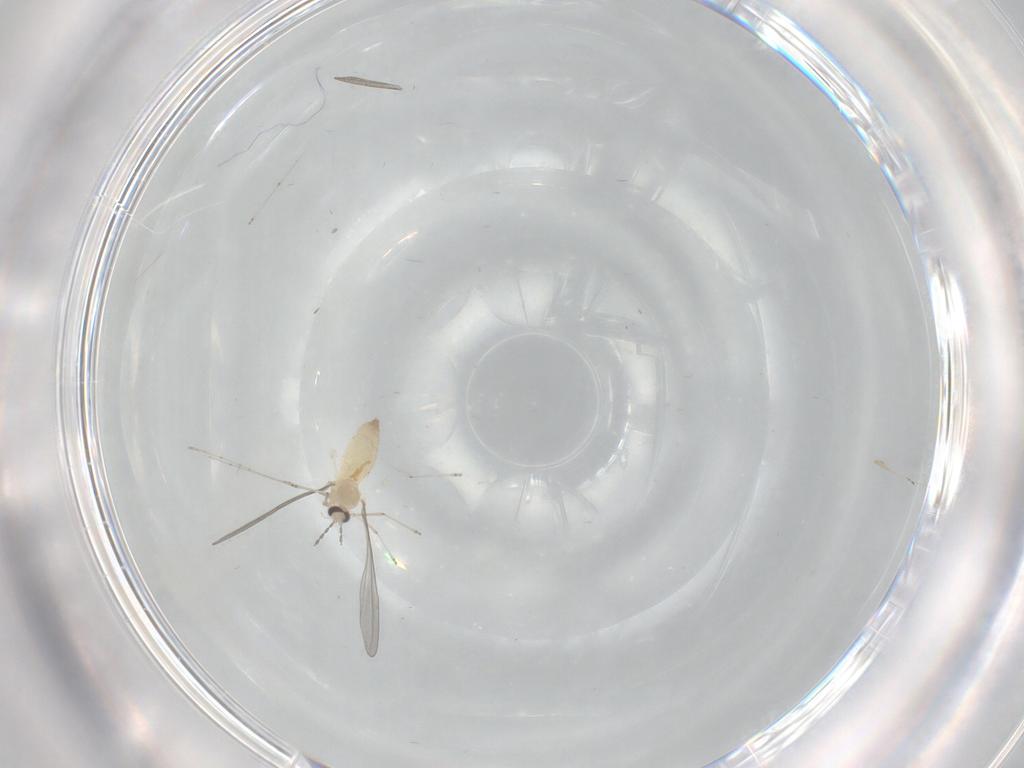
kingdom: Animalia
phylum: Arthropoda
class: Insecta
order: Diptera
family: Cecidomyiidae
